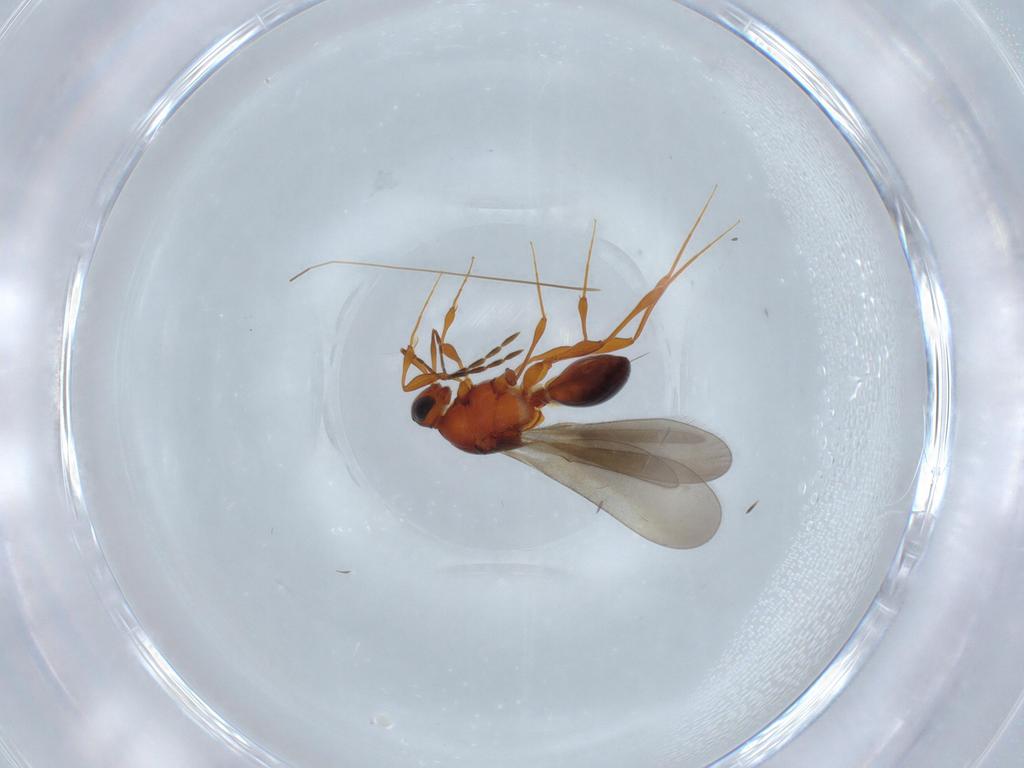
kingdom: Animalia
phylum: Arthropoda
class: Insecta
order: Hymenoptera
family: Platygastridae
